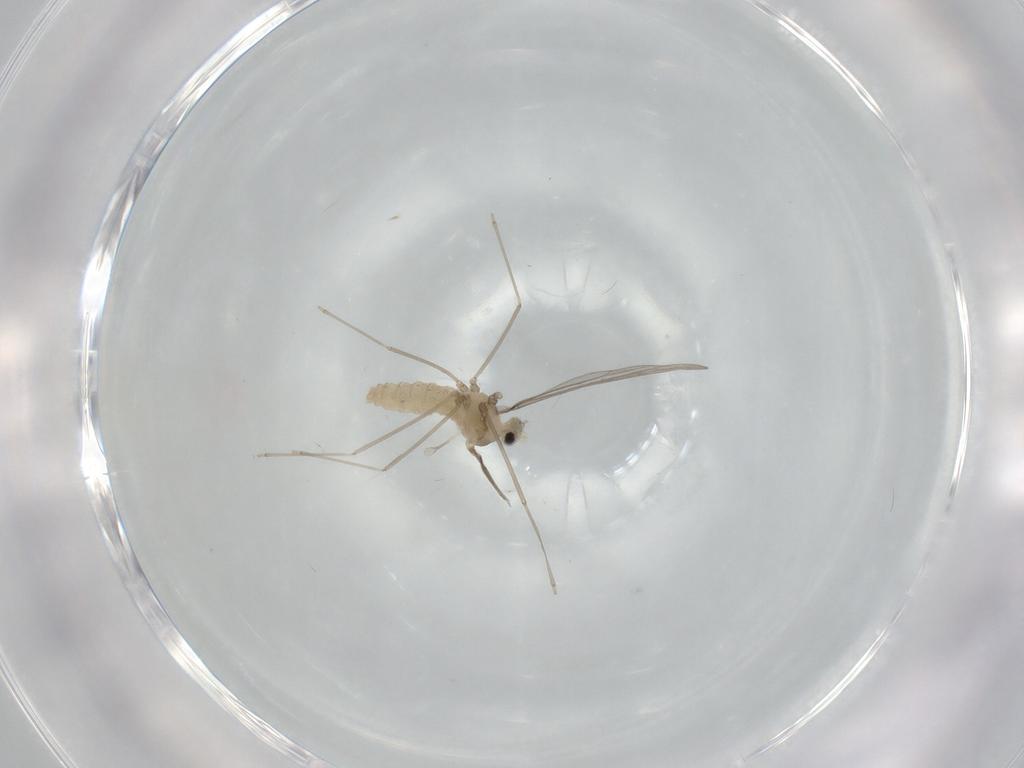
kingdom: Animalia
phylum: Arthropoda
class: Insecta
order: Diptera
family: Cecidomyiidae
